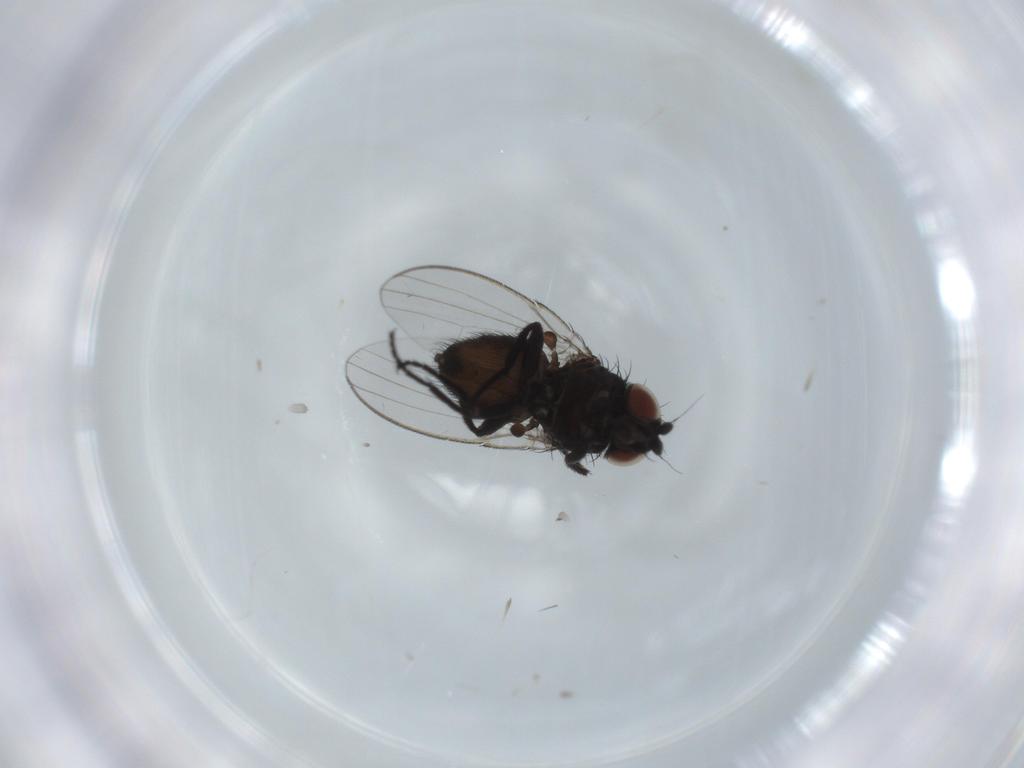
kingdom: Animalia
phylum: Arthropoda
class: Insecta
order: Diptera
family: Milichiidae
